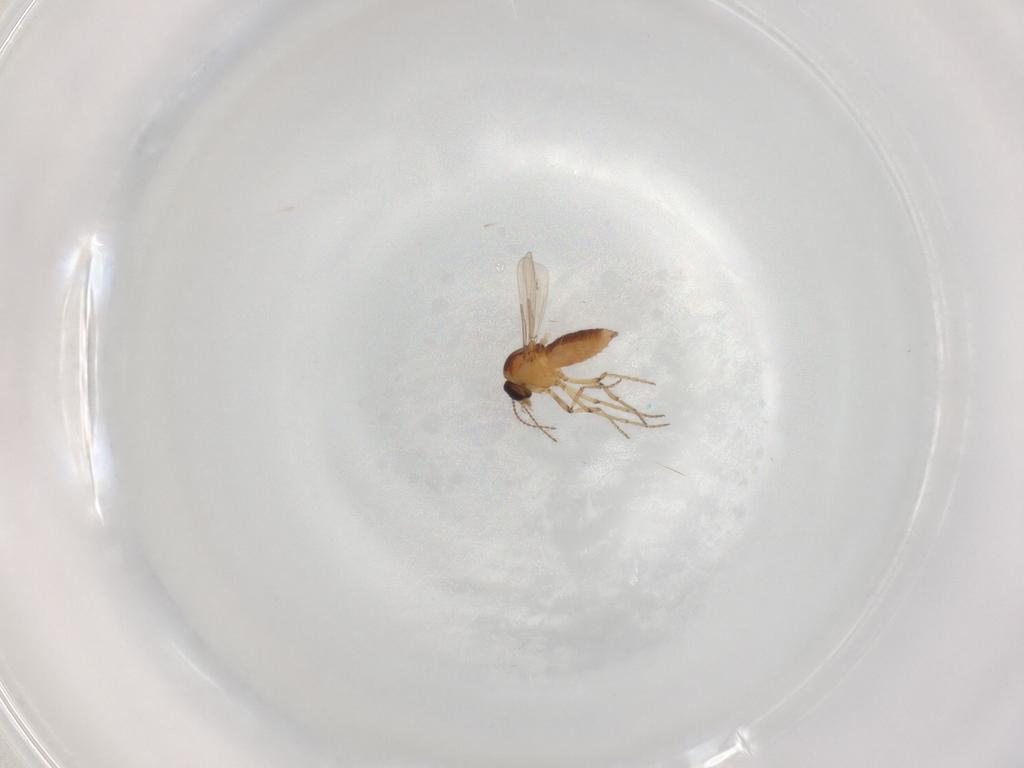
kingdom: Animalia
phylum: Arthropoda
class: Insecta
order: Diptera
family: Ceratopogonidae
